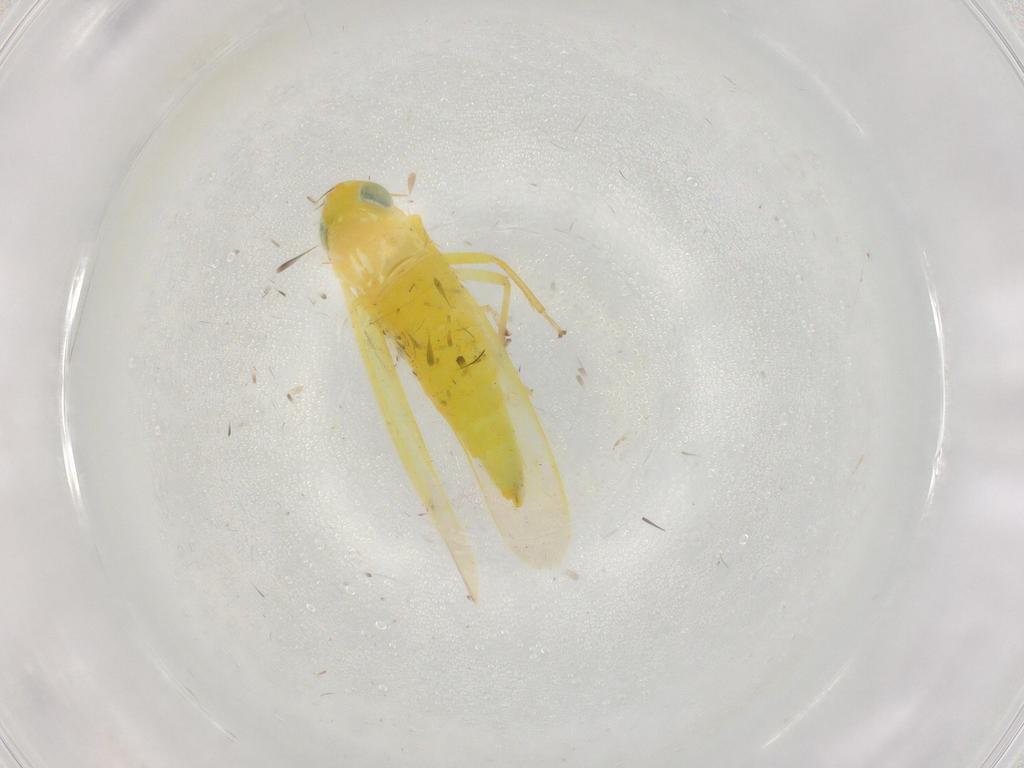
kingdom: Animalia
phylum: Arthropoda
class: Insecta
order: Hemiptera
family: Cicadellidae
